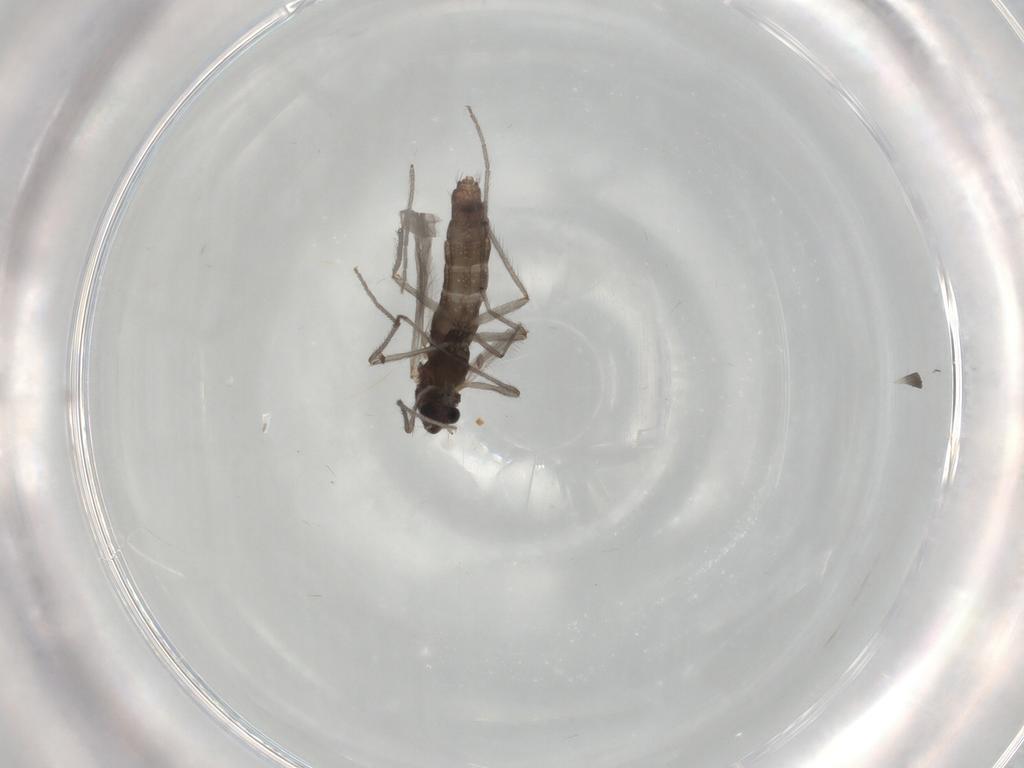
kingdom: Animalia
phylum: Arthropoda
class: Insecta
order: Diptera
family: Chironomidae
